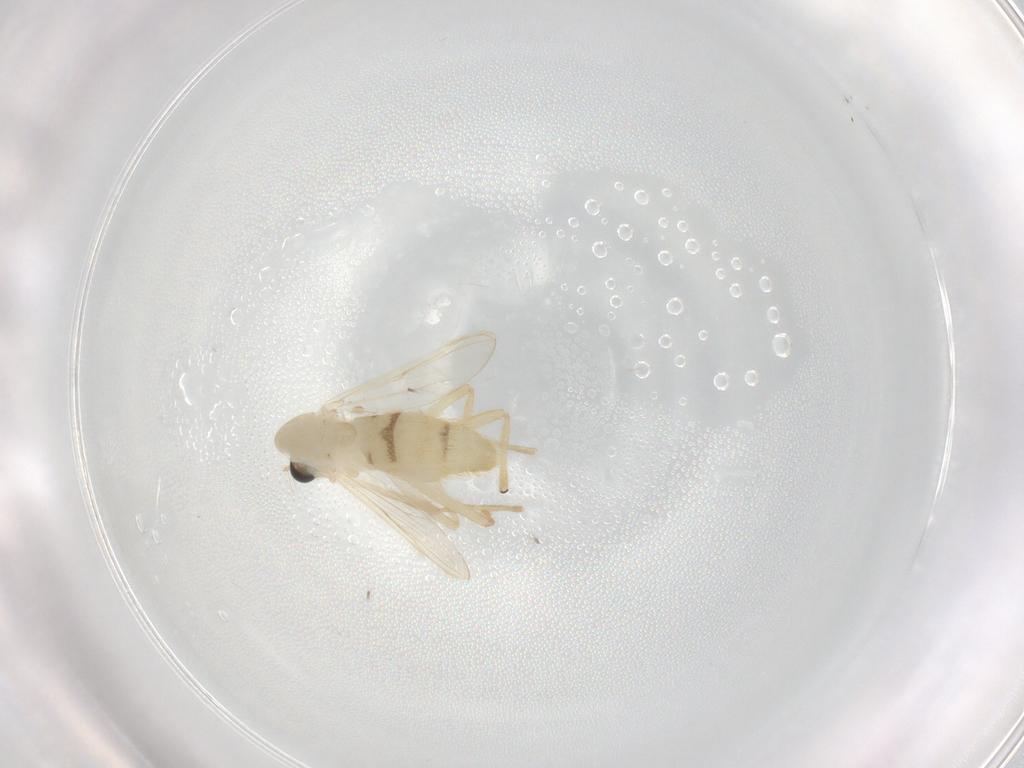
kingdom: Animalia
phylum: Arthropoda
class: Insecta
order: Diptera
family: Chironomidae
